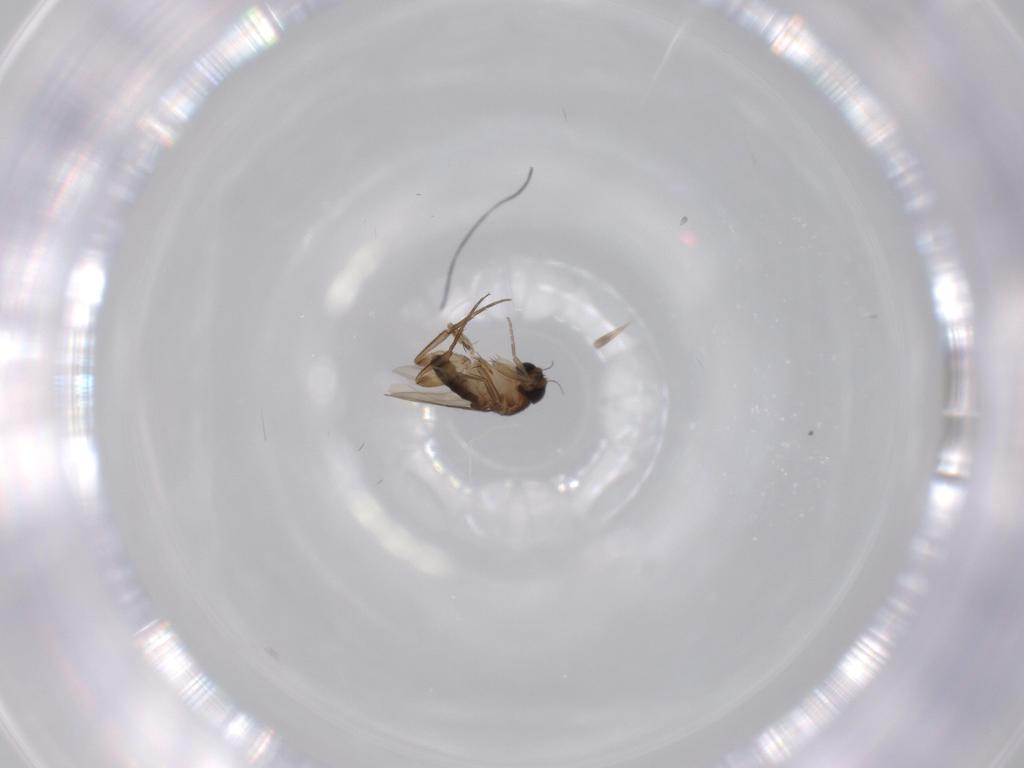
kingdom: Animalia
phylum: Arthropoda
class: Insecta
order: Diptera
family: Phoridae
